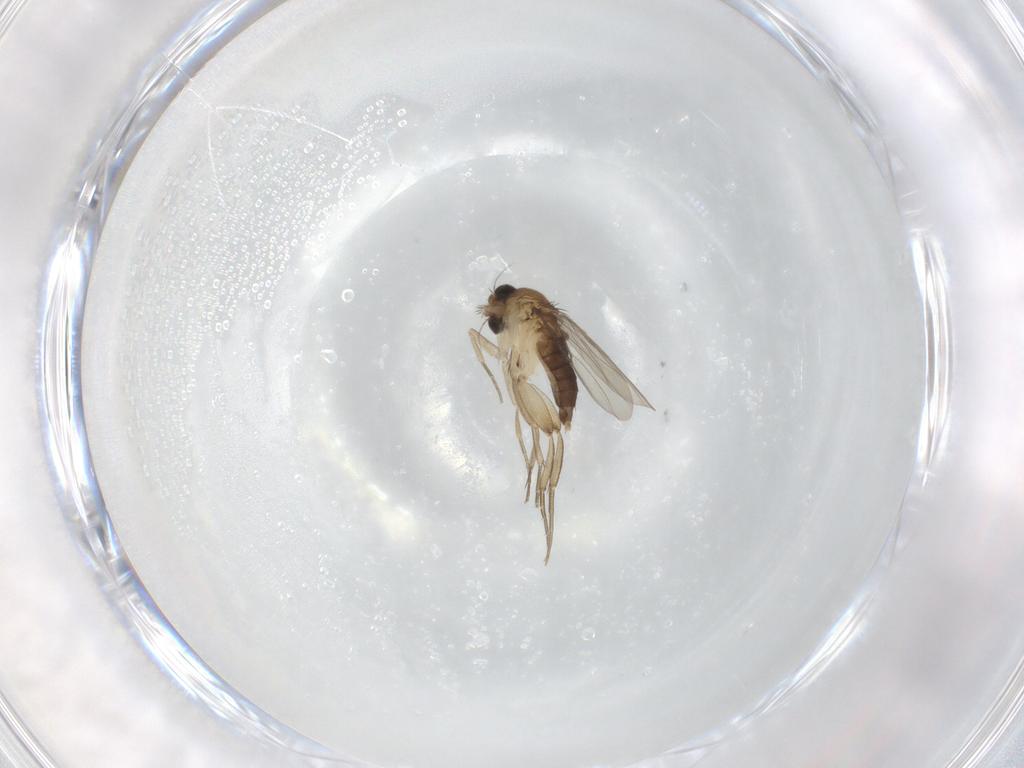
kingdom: Animalia
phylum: Arthropoda
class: Insecta
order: Diptera
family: Phoridae
